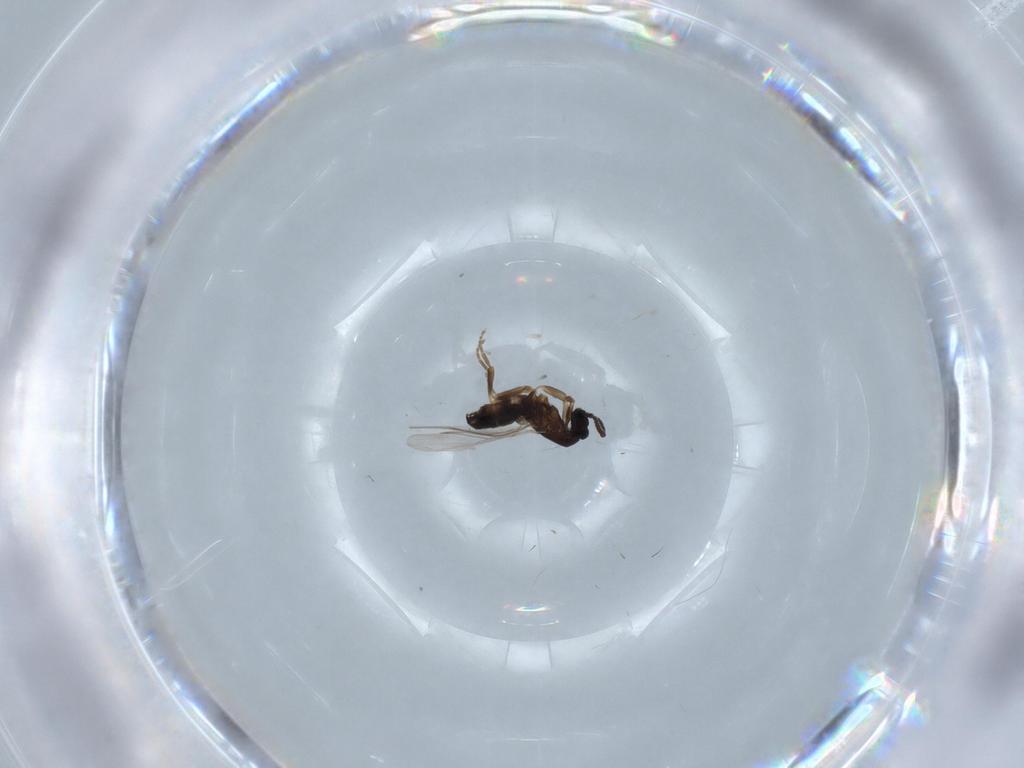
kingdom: Animalia
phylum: Arthropoda
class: Insecta
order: Diptera
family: Scatopsidae
